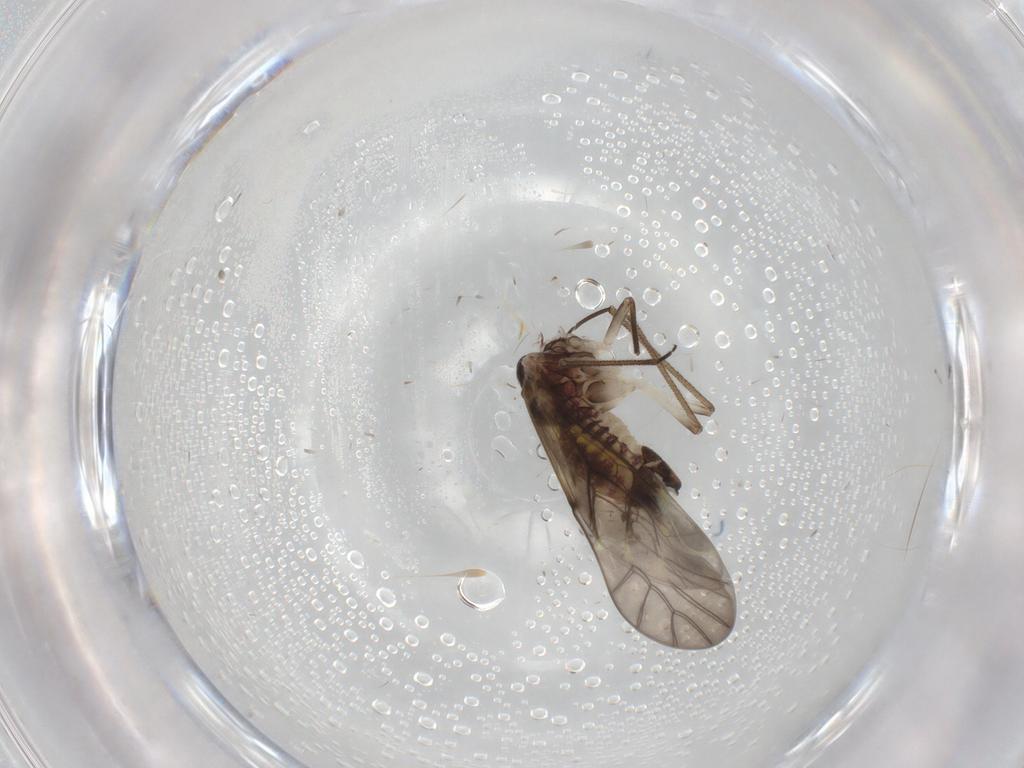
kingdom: Animalia
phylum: Arthropoda
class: Insecta
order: Psocodea
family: Psocidae
